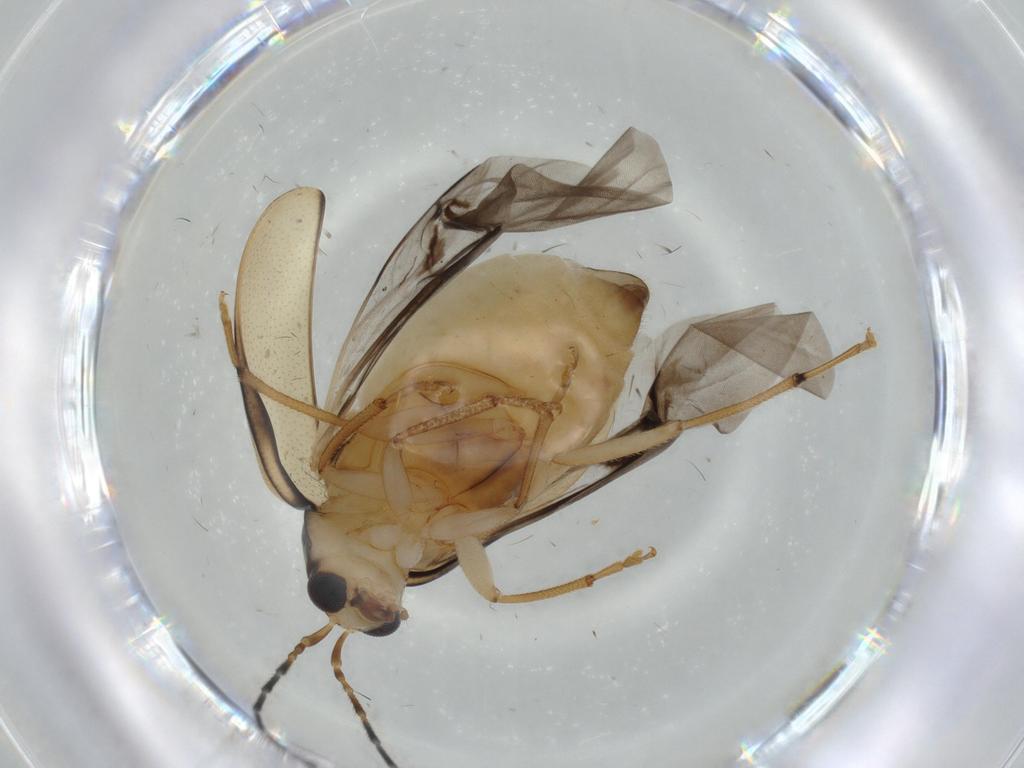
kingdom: Animalia
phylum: Arthropoda
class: Insecta
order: Coleoptera
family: Chrysomelidae
